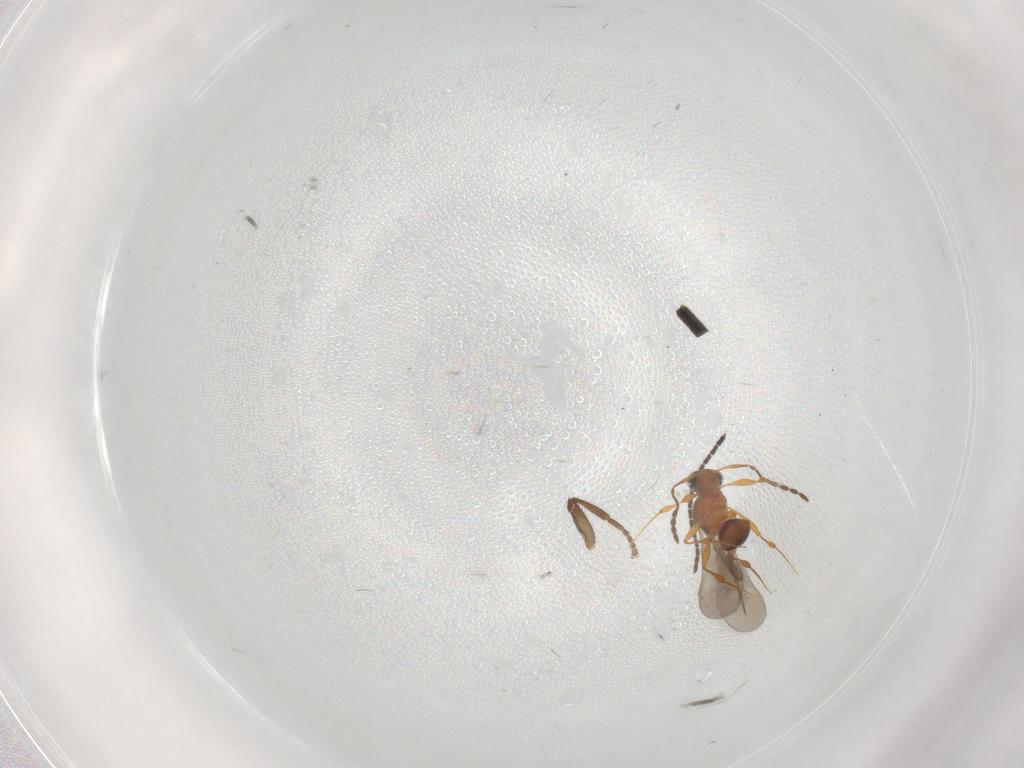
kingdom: Animalia
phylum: Arthropoda
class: Insecta
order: Hymenoptera
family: Platygastridae
